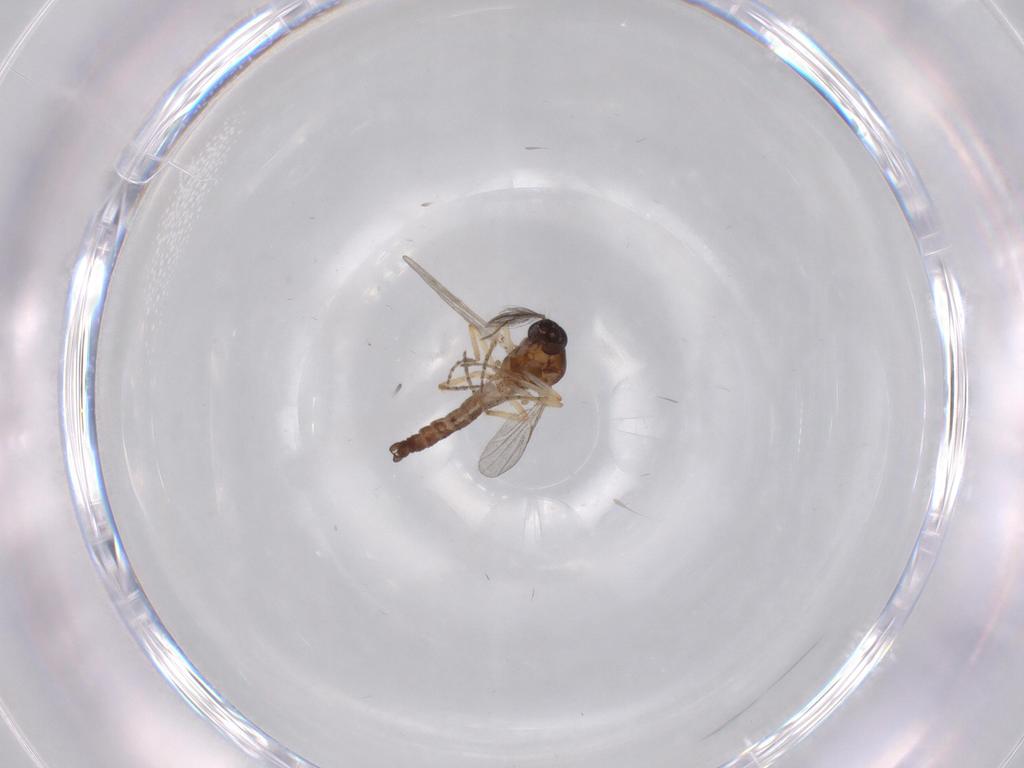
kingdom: Animalia
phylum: Arthropoda
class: Insecta
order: Diptera
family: Ceratopogonidae
